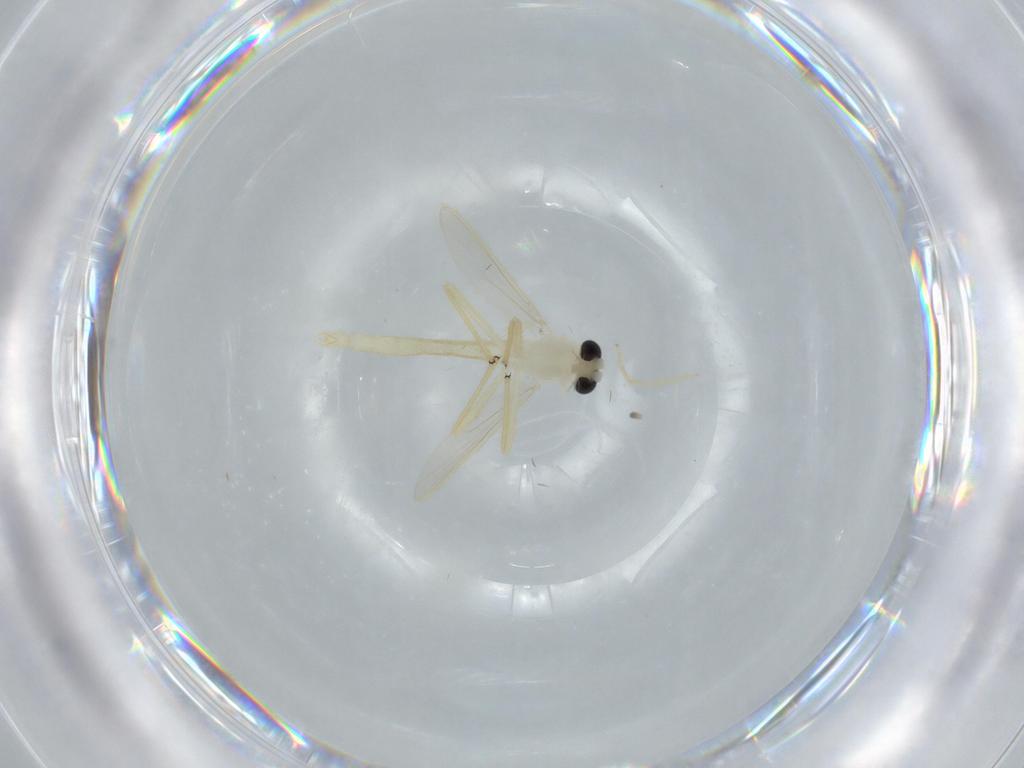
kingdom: Animalia
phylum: Arthropoda
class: Insecta
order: Diptera
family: Chironomidae
